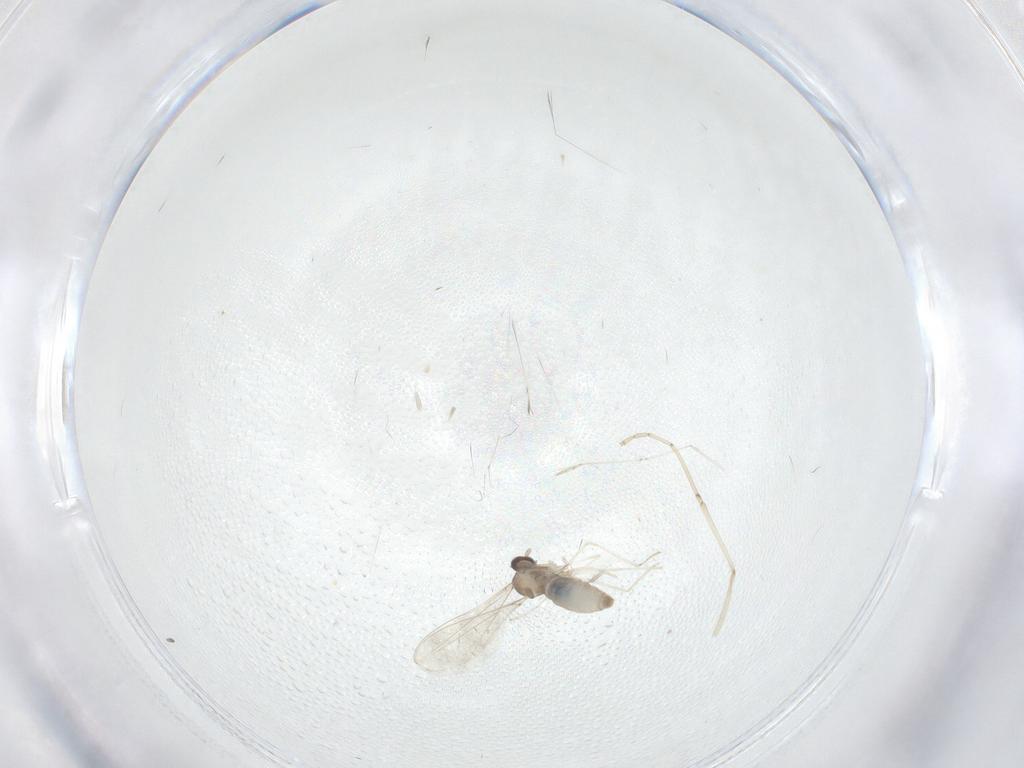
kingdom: Animalia
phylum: Arthropoda
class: Insecta
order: Diptera
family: Cecidomyiidae
